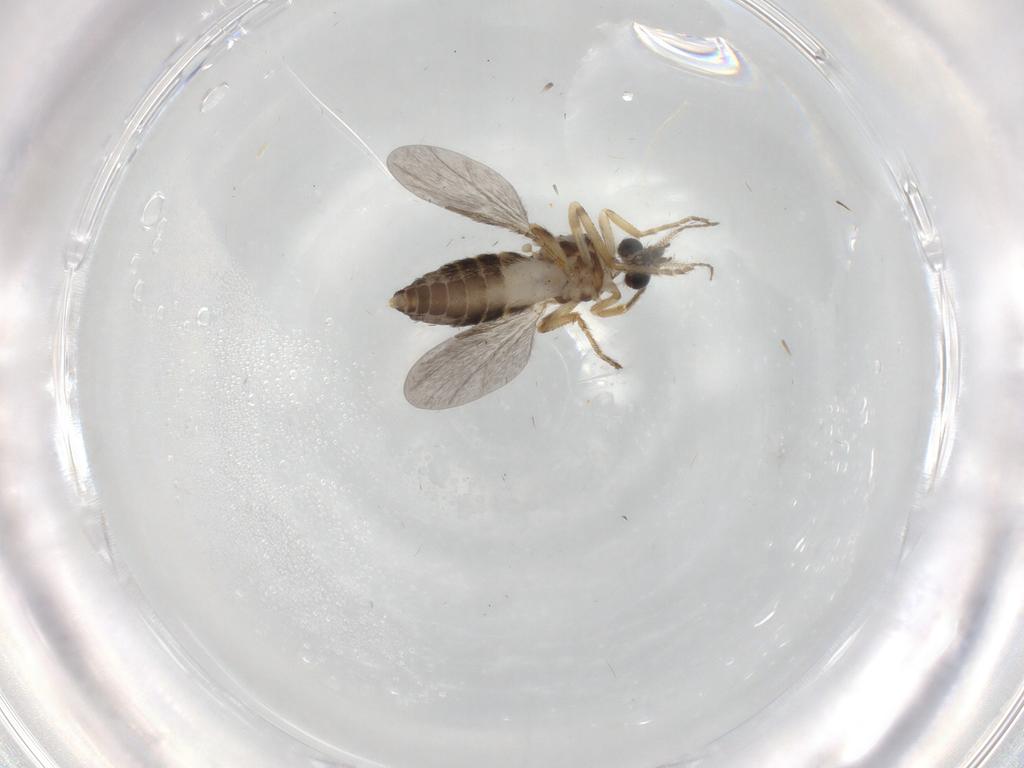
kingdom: Animalia
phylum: Arthropoda
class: Insecta
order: Diptera
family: Ceratopogonidae
